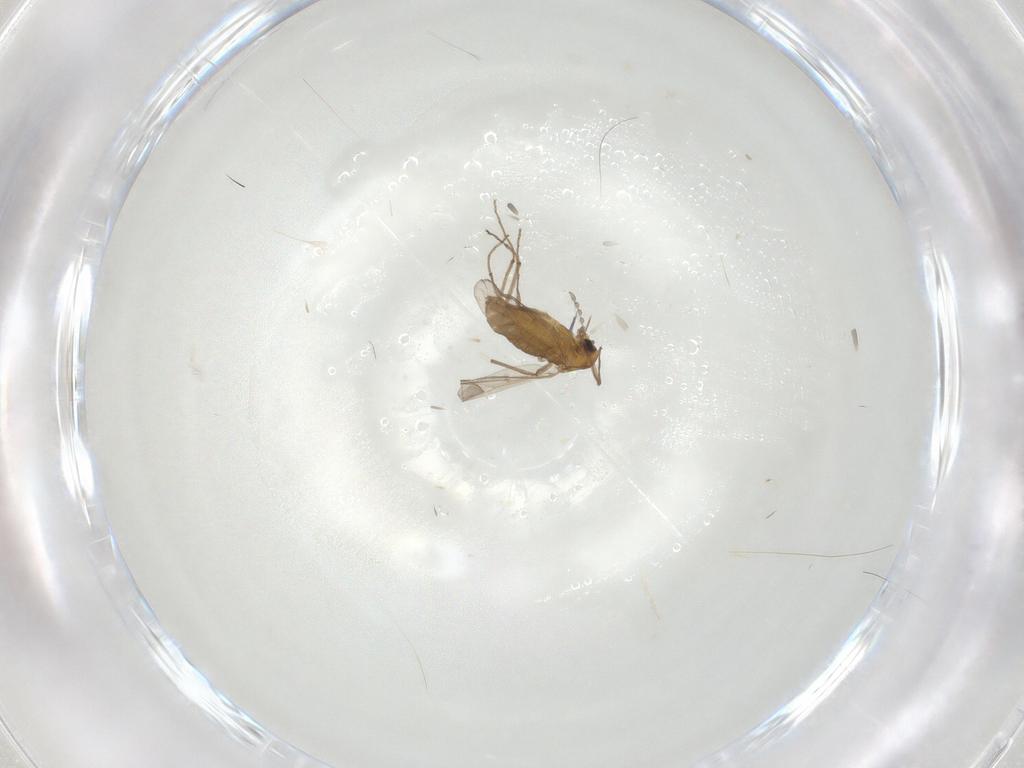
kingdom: Animalia
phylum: Arthropoda
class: Insecta
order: Diptera
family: Chironomidae
